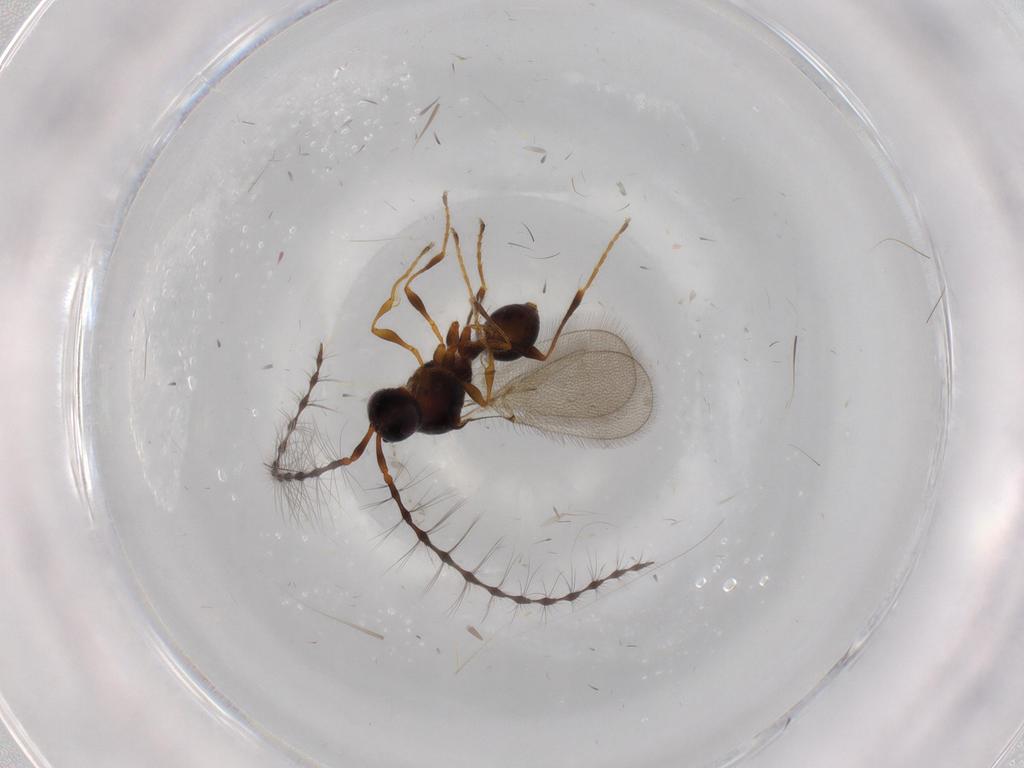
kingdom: Animalia
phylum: Arthropoda
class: Insecta
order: Hymenoptera
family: Diapriidae
